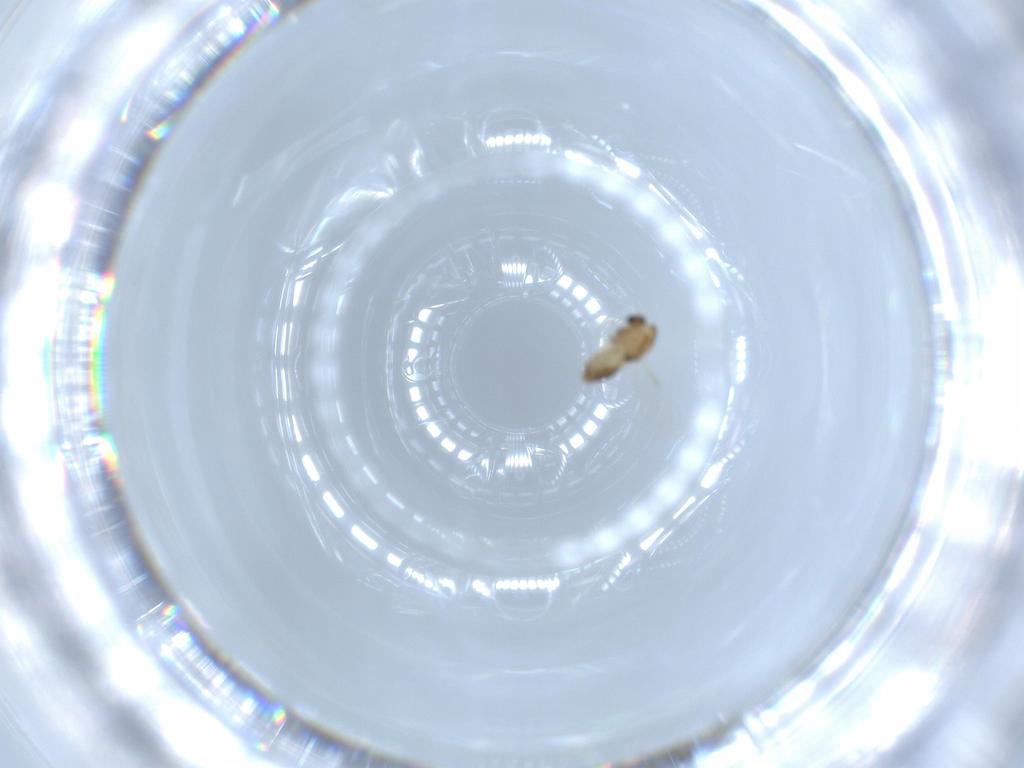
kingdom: Animalia
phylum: Arthropoda
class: Insecta
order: Diptera
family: Chironomidae
